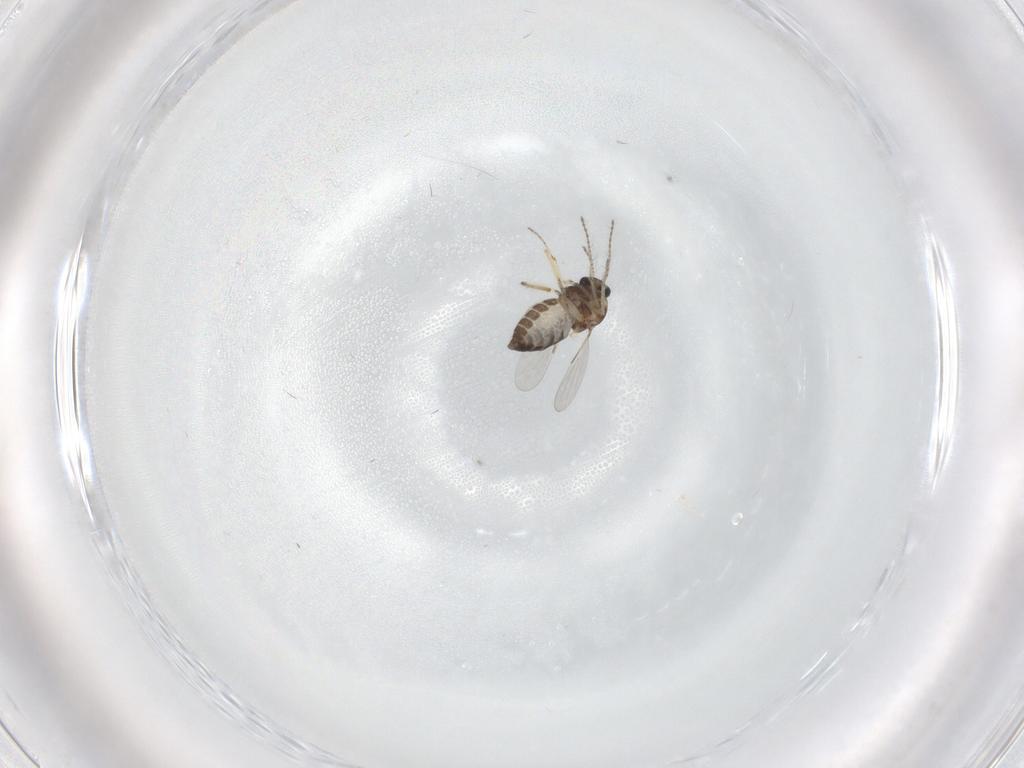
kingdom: Animalia
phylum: Arthropoda
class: Insecta
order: Diptera
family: Ceratopogonidae
